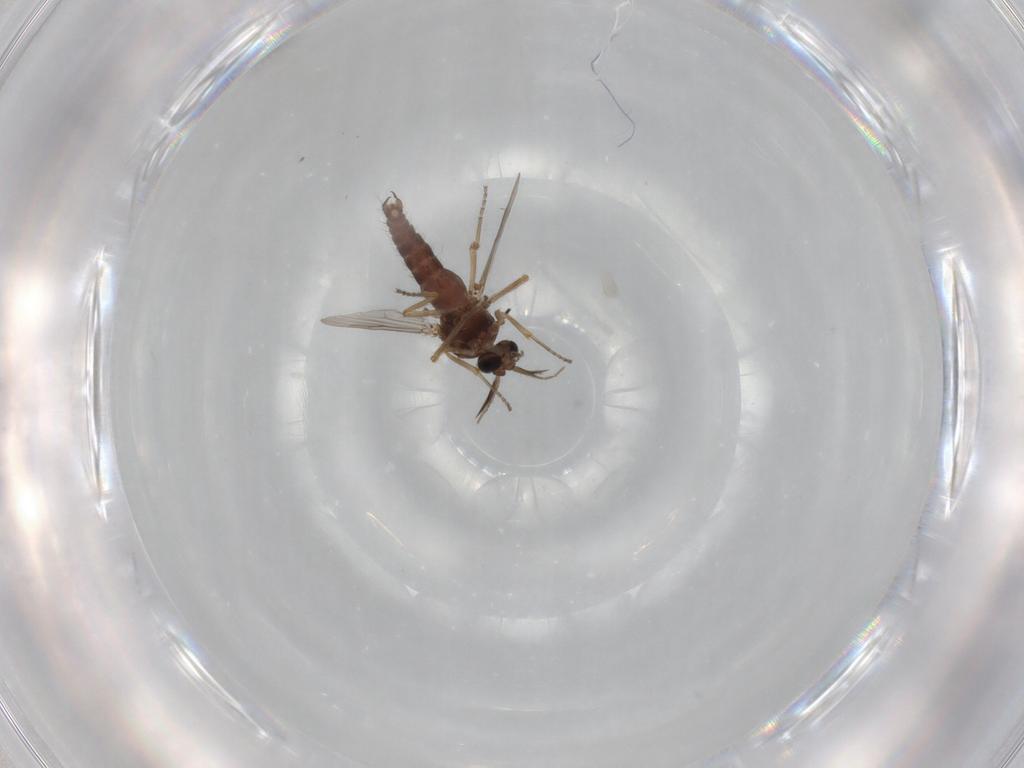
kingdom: Animalia
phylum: Arthropoda
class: Insecta
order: Diptera
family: Ceratopogonidae
